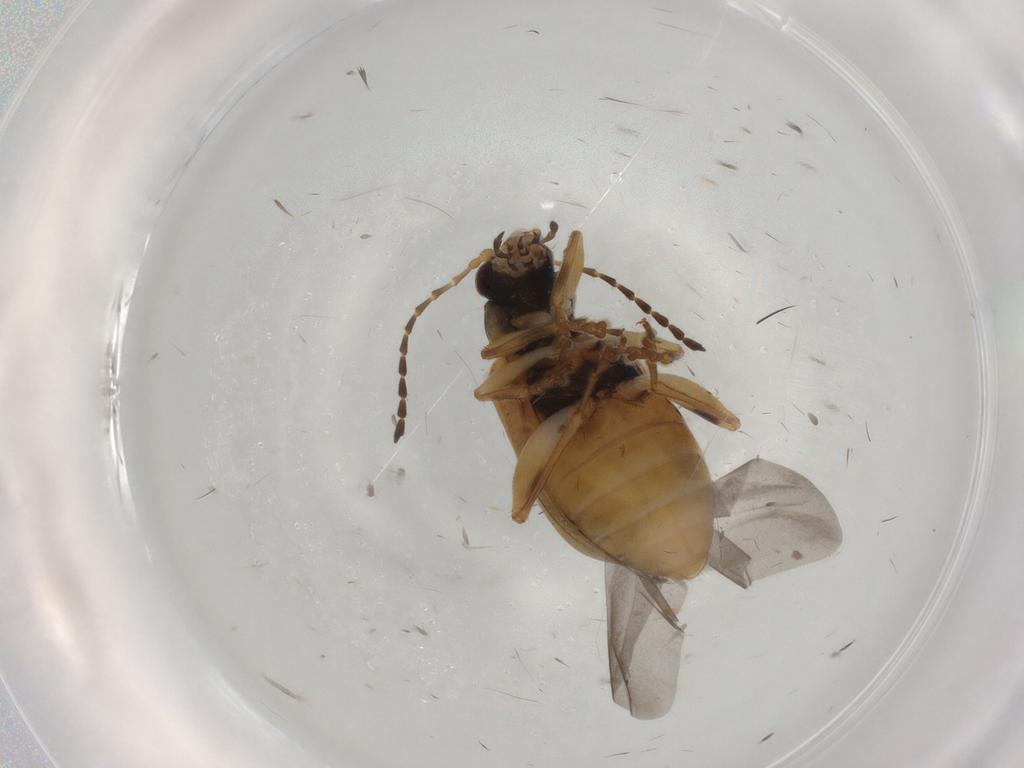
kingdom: Animalia
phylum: Arthropoda
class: Insecta
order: Coleoptera
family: Chrysomelidae
